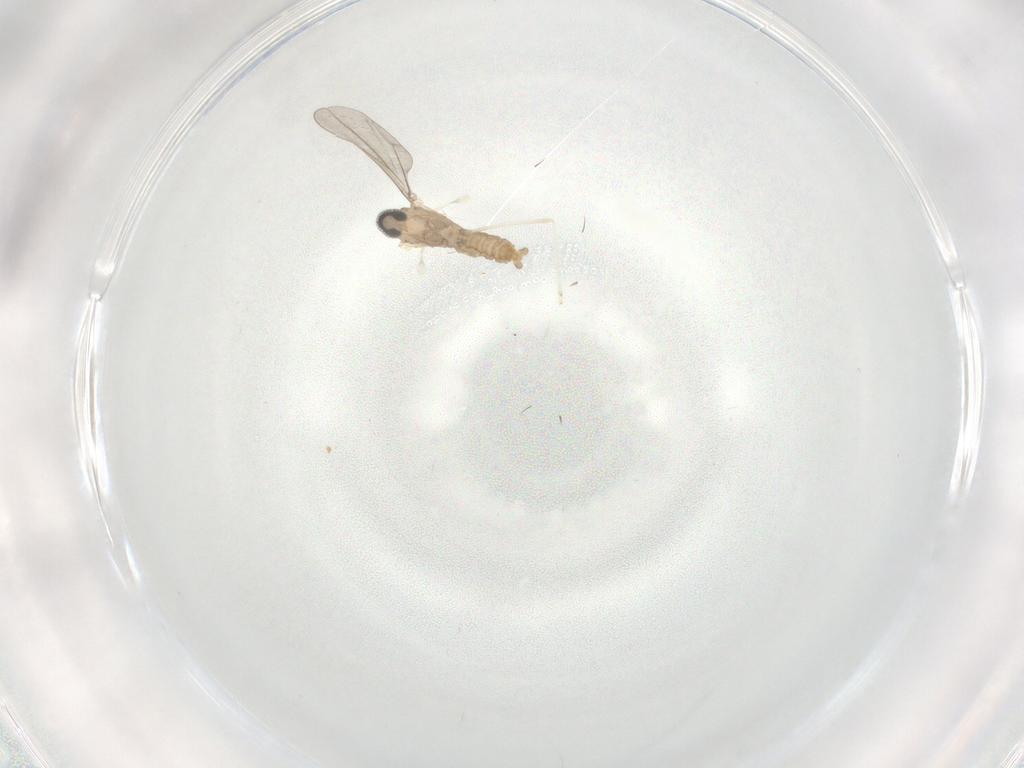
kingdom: Animalia
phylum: Arthropoda
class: Insecta
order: Diptera
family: Cecidomyiidae
